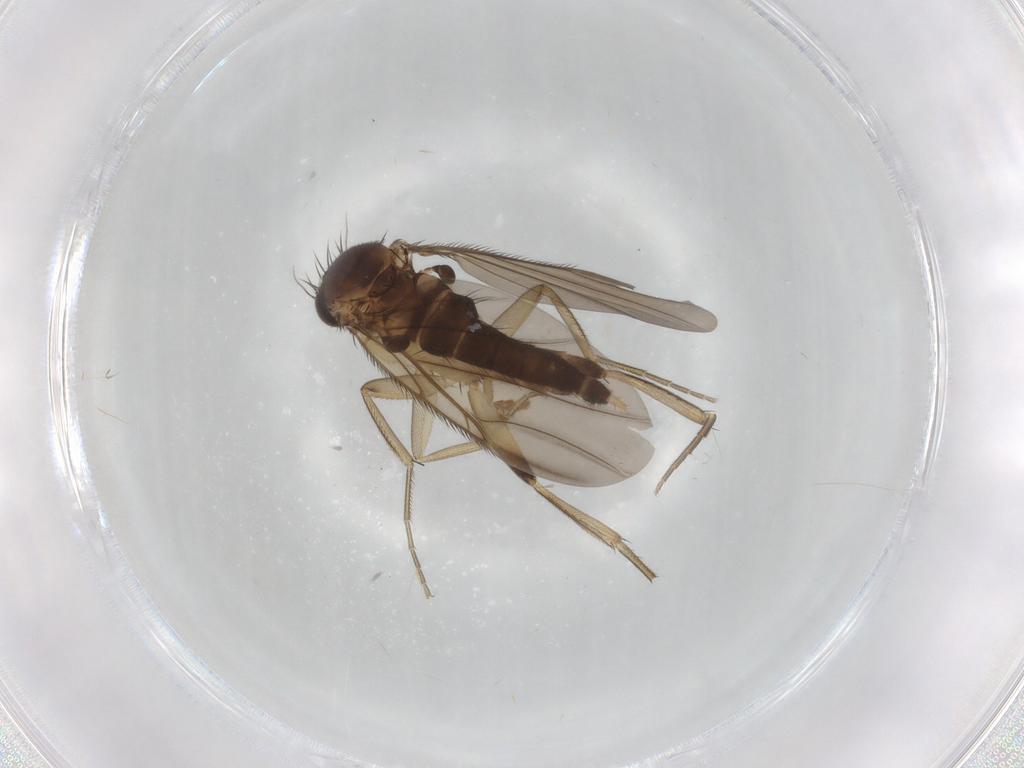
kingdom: Animalia
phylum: Arthropoda
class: Insecta
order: Diptera
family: Phoridae
